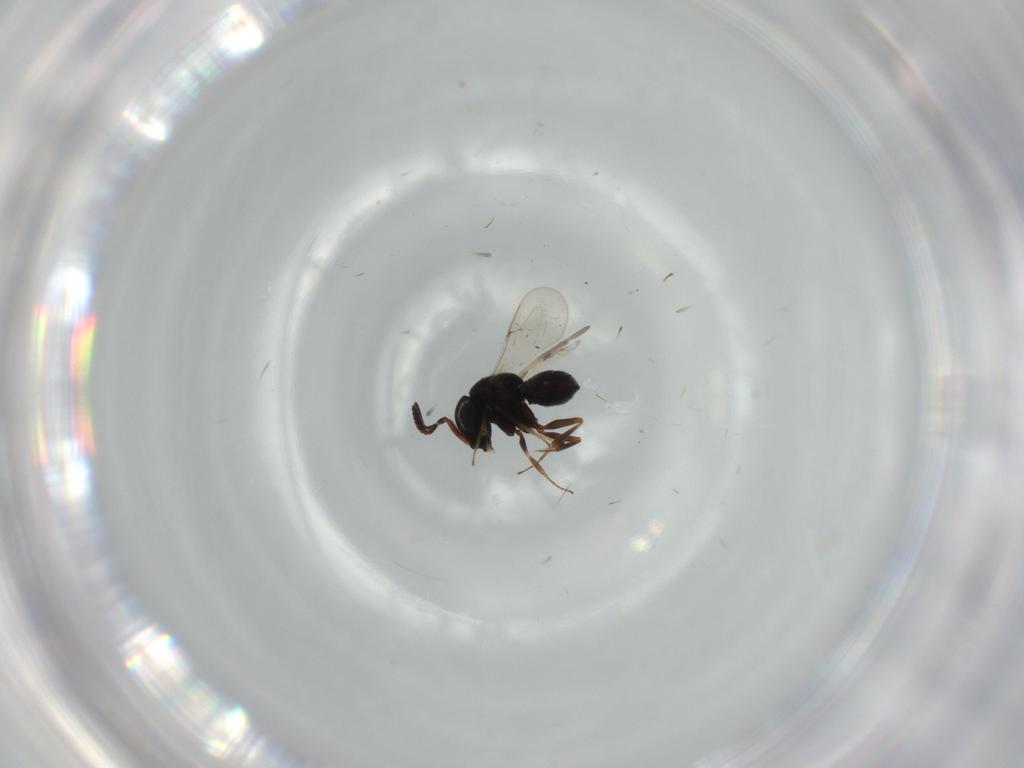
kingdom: Animalia
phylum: Arthropoda
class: Insecta
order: Hymenoptera
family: Scelionidae
